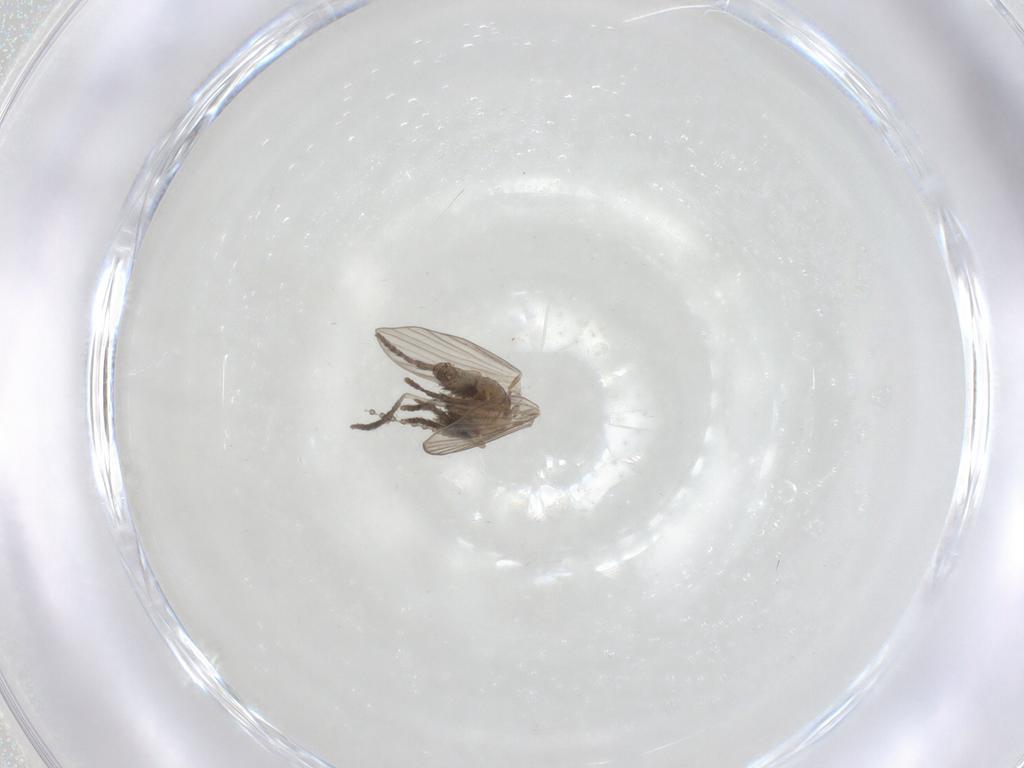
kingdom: Animalia
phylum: Arthropoda
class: Insecta
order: Diptera
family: Psychodidae
